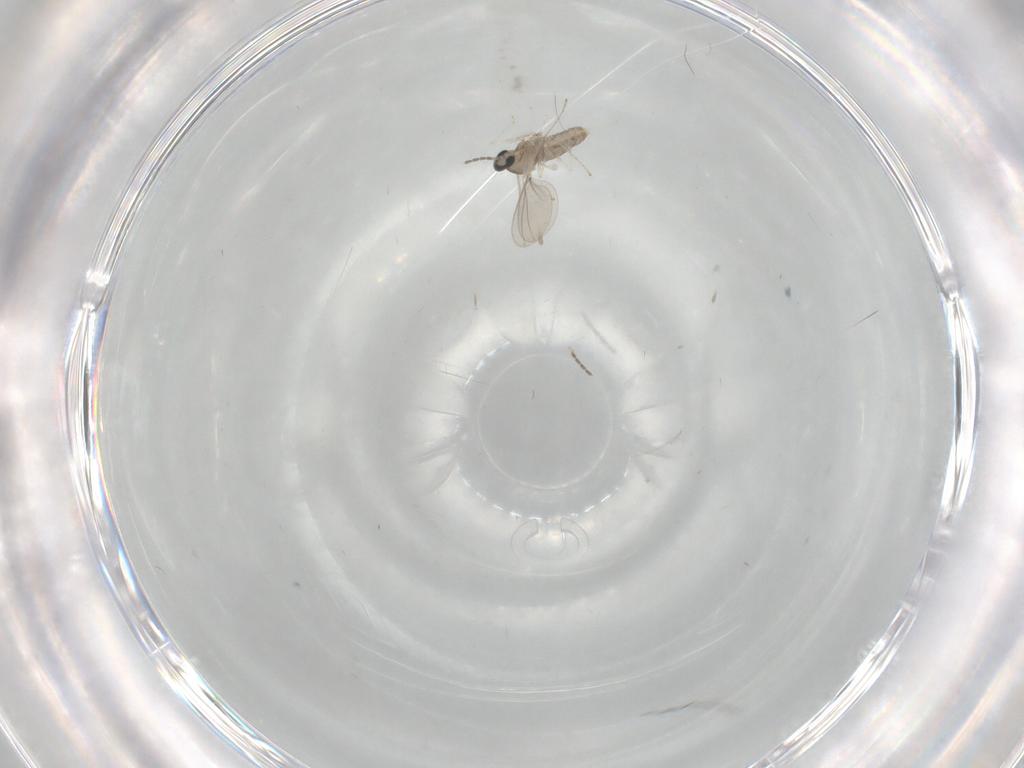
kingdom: Animalia
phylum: Arthropoda
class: Insecta
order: Diptera
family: Cecidomyiidae
